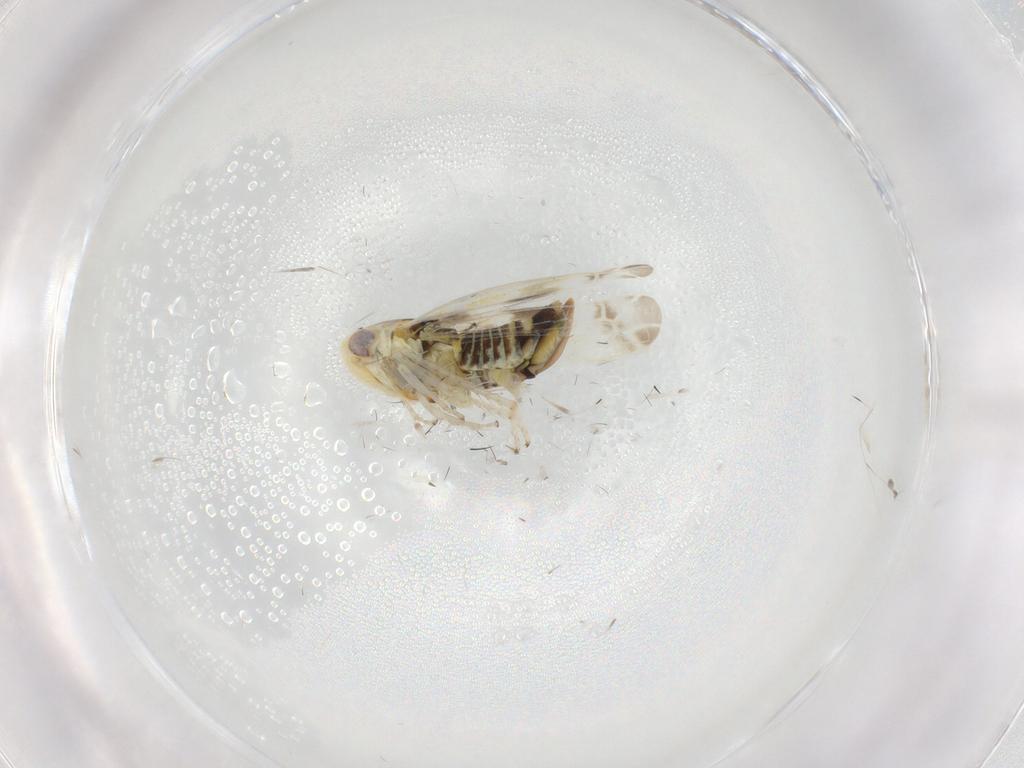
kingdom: Animalia
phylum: Arthropoda
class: Insecta
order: Hemiptera
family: Cicadellidae
